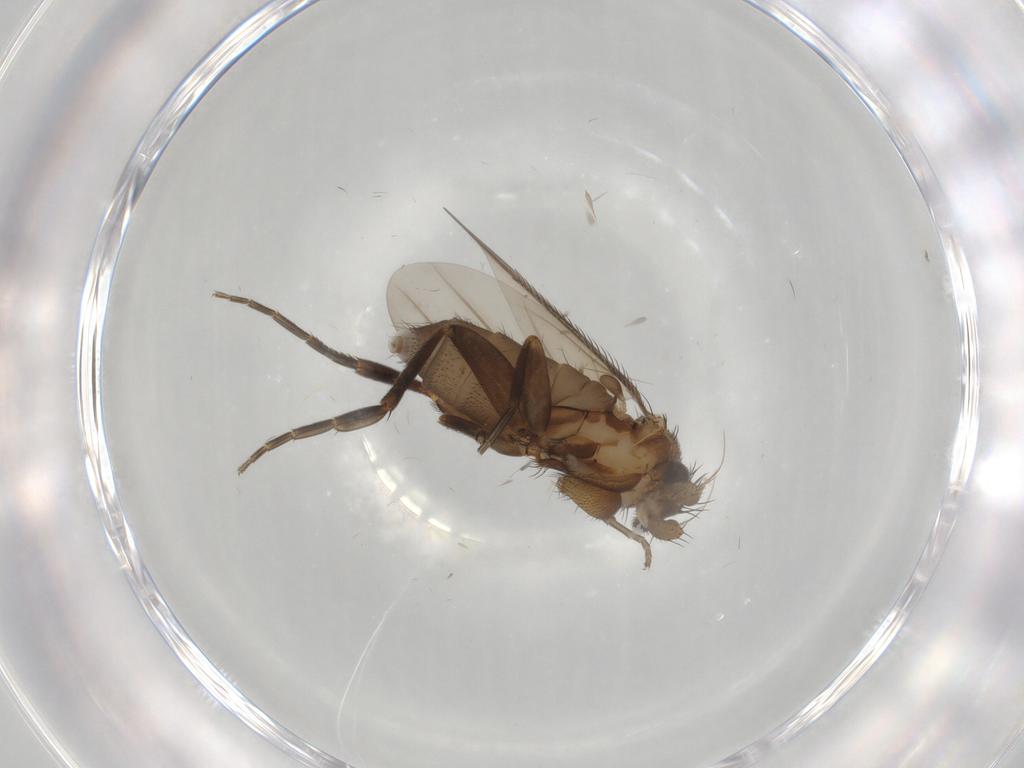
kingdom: Animalia
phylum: Arthropoda
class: Insecta
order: Diptera
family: Phoridae
